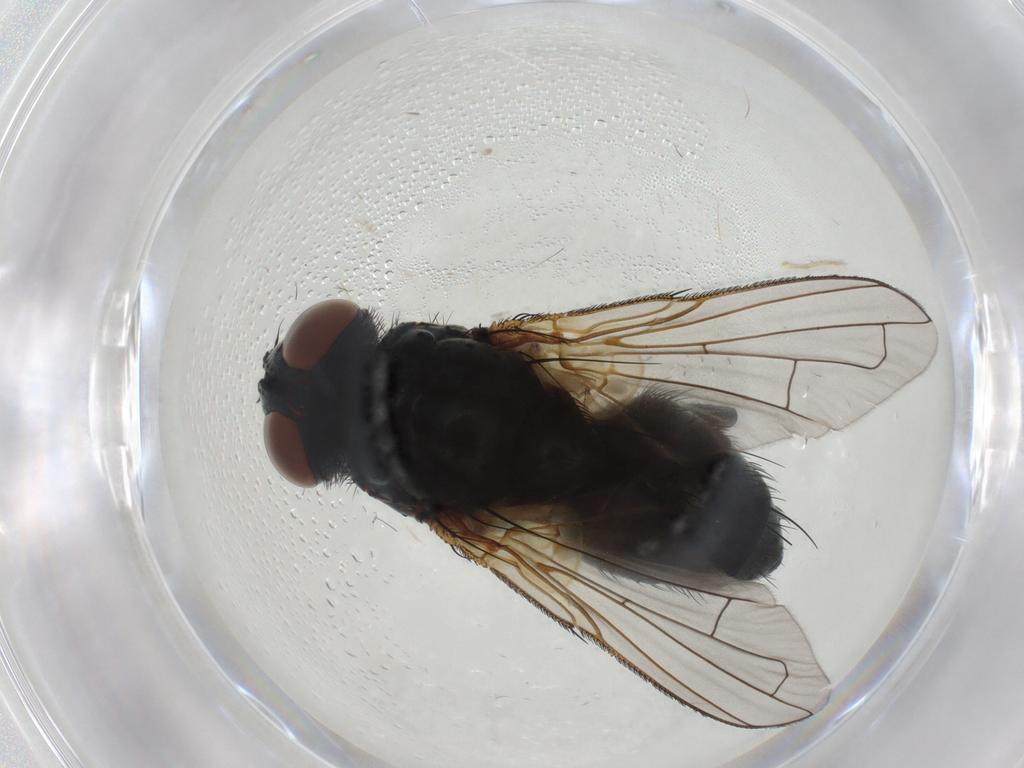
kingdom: Animalia
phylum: Arthropoda
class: Insecta
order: Diptera
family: Tachinidae
